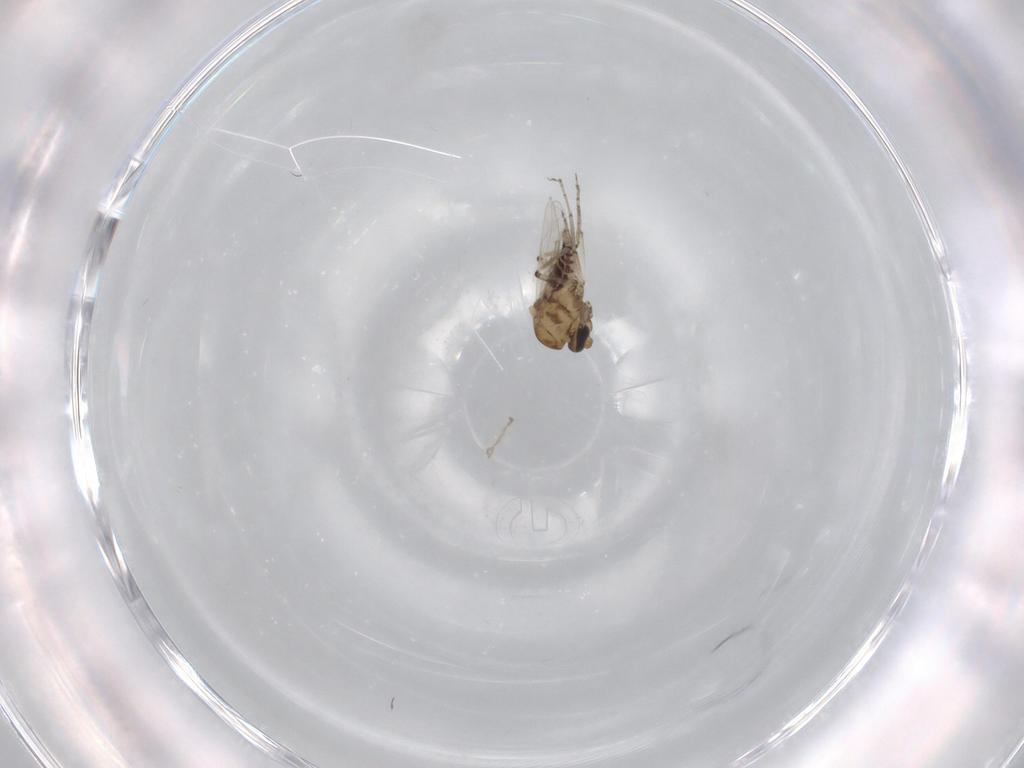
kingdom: Animalia
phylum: Arthropoda
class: Insecta
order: Diptera
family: Ceratopogonidae
